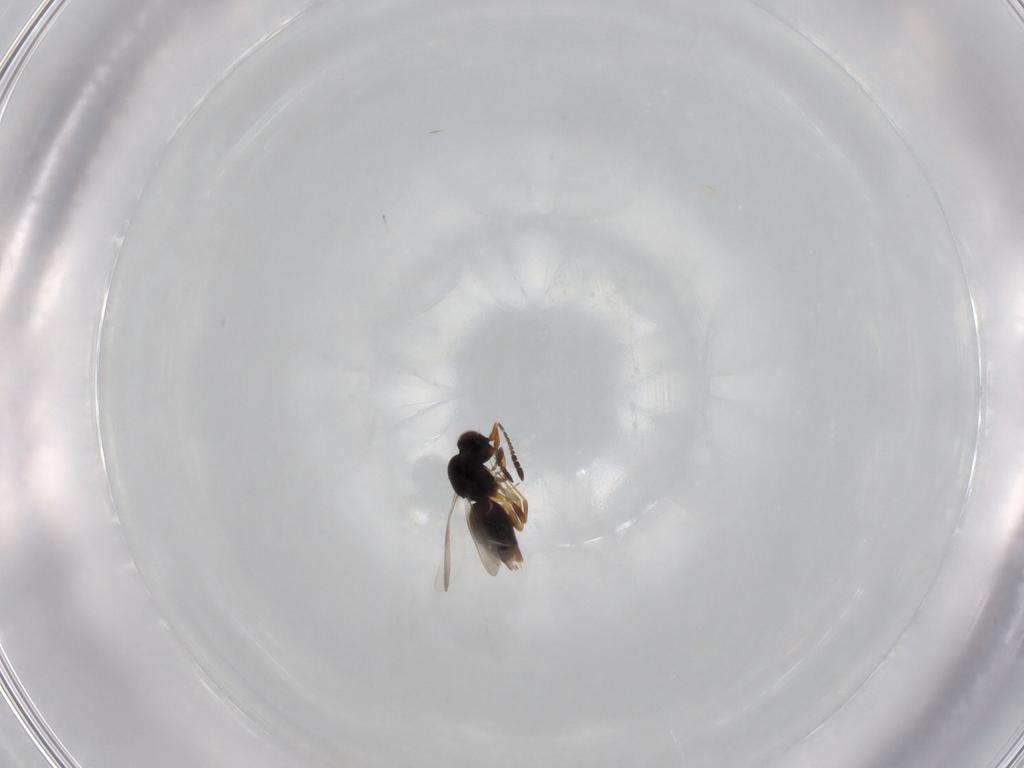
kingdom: Animalia
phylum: Arthropoda
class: Insecta
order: Hymenoptera
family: Ceraphronidae
